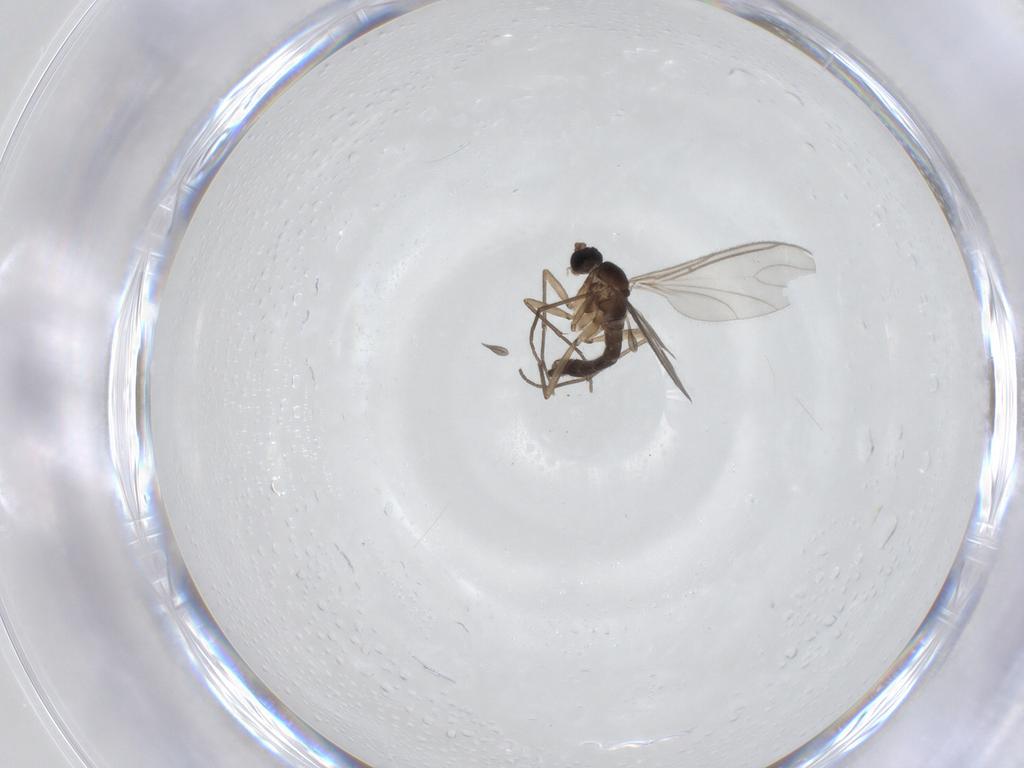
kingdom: Animalia
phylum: Arthropoda
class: Insecta
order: Diptera
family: Sciaridae
